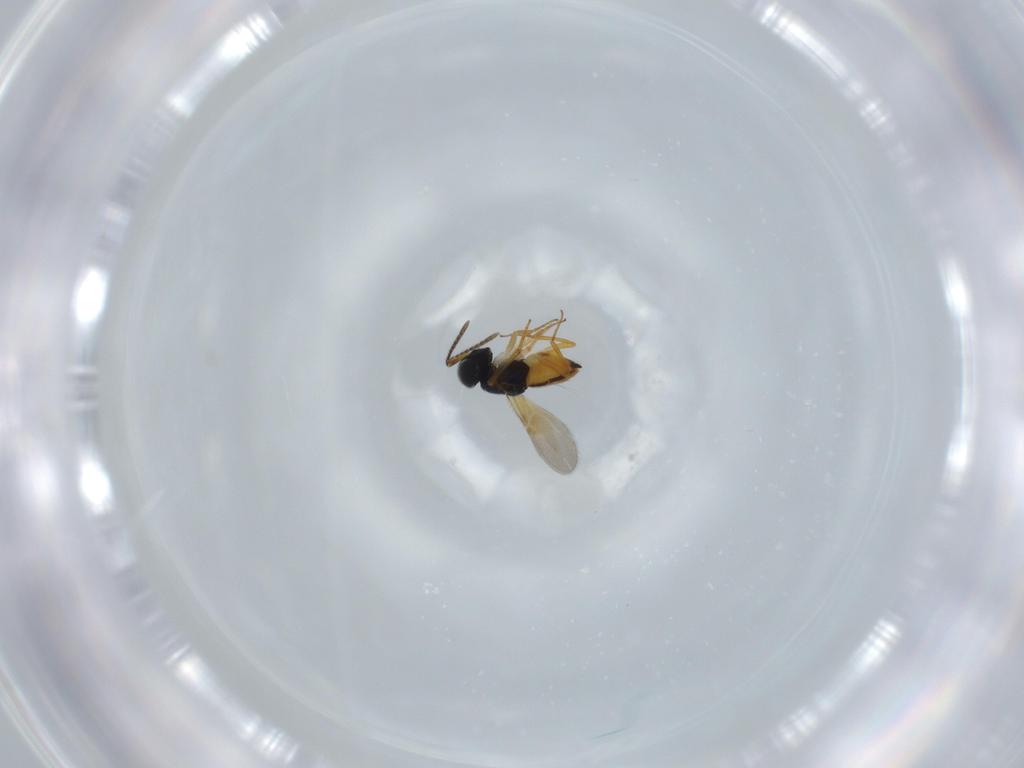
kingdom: Animalia
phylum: Arthropoda
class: Insecta
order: Hymenoptera
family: Encyrtidae
